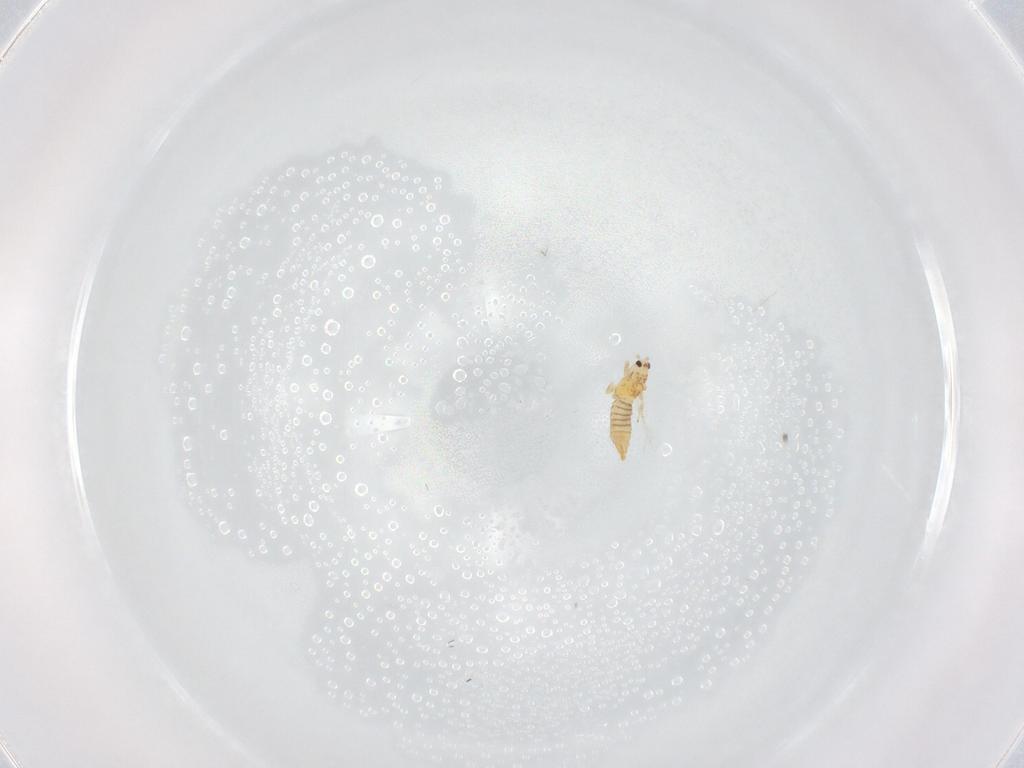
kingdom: Animalia
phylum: Arthropoda
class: Insecta
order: Thysanoptera
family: Thripidae
